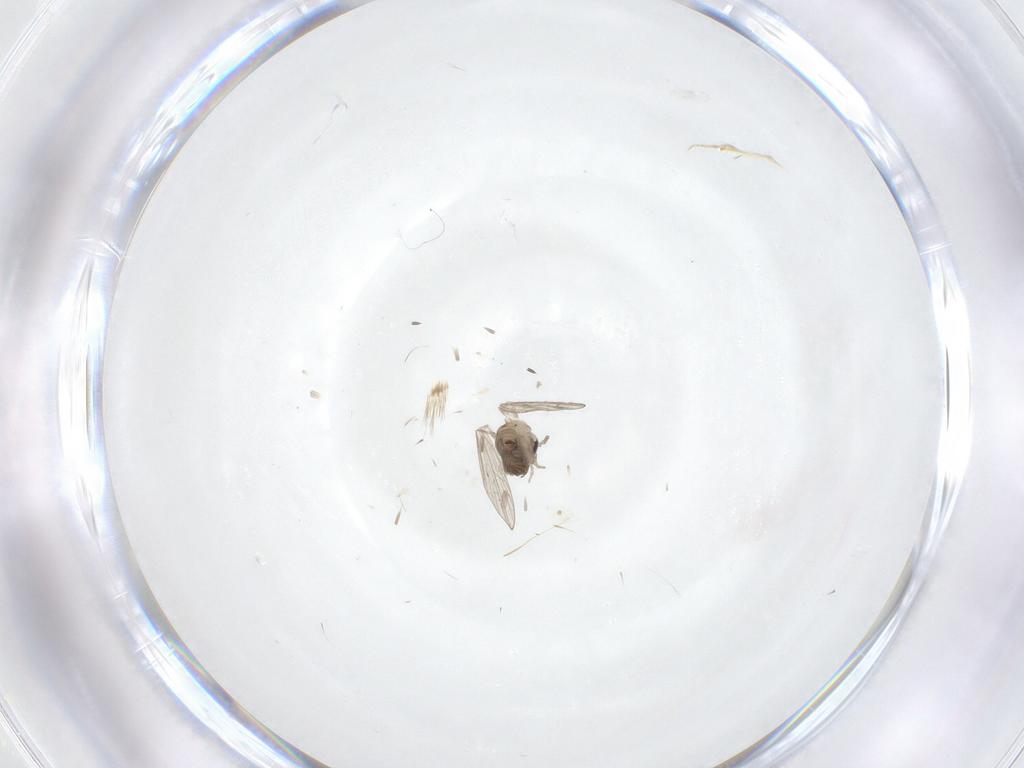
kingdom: Animalia
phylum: Arthropoda
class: Insecta
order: Diptera
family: Psychodidae
